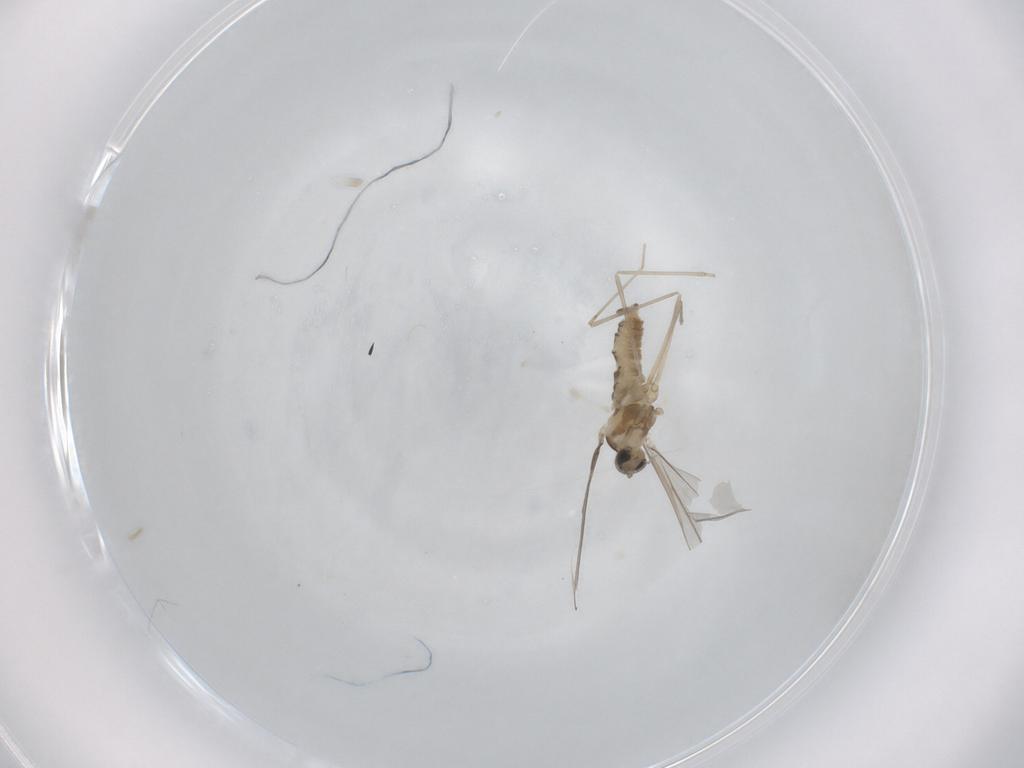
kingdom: Animalia
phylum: Arthropoda
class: Insecta
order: Diptera
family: Cecidomyiidae
